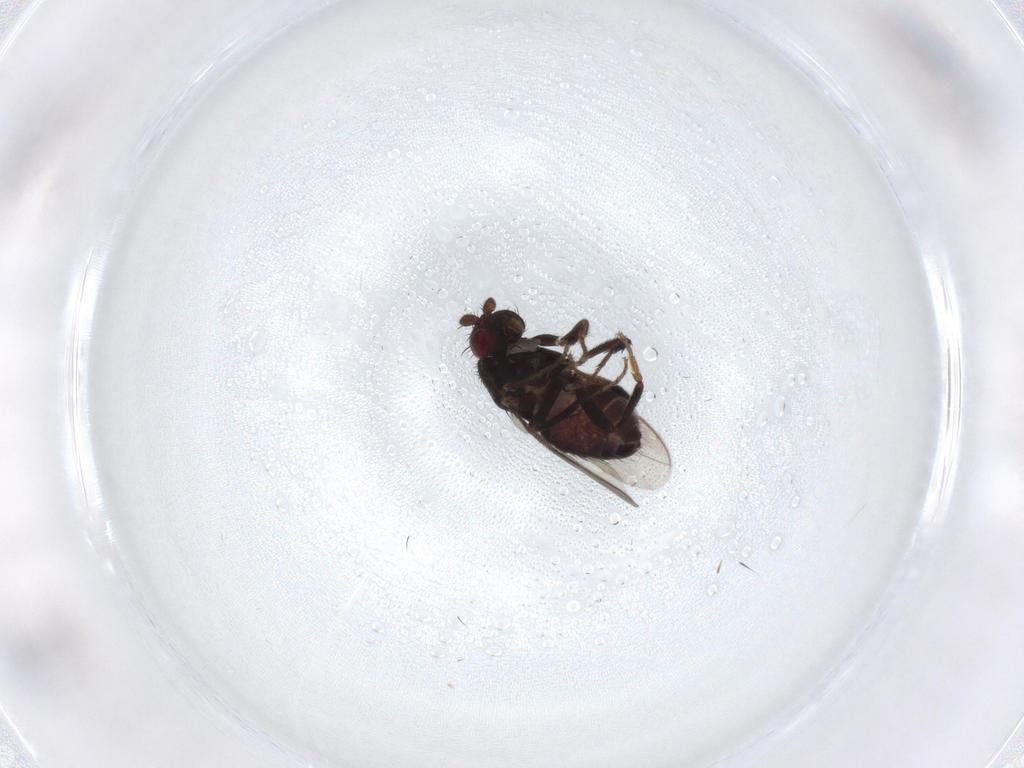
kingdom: Animalia
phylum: Arthropoda
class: Insecta
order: Diptera
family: Sphaeroceridae
